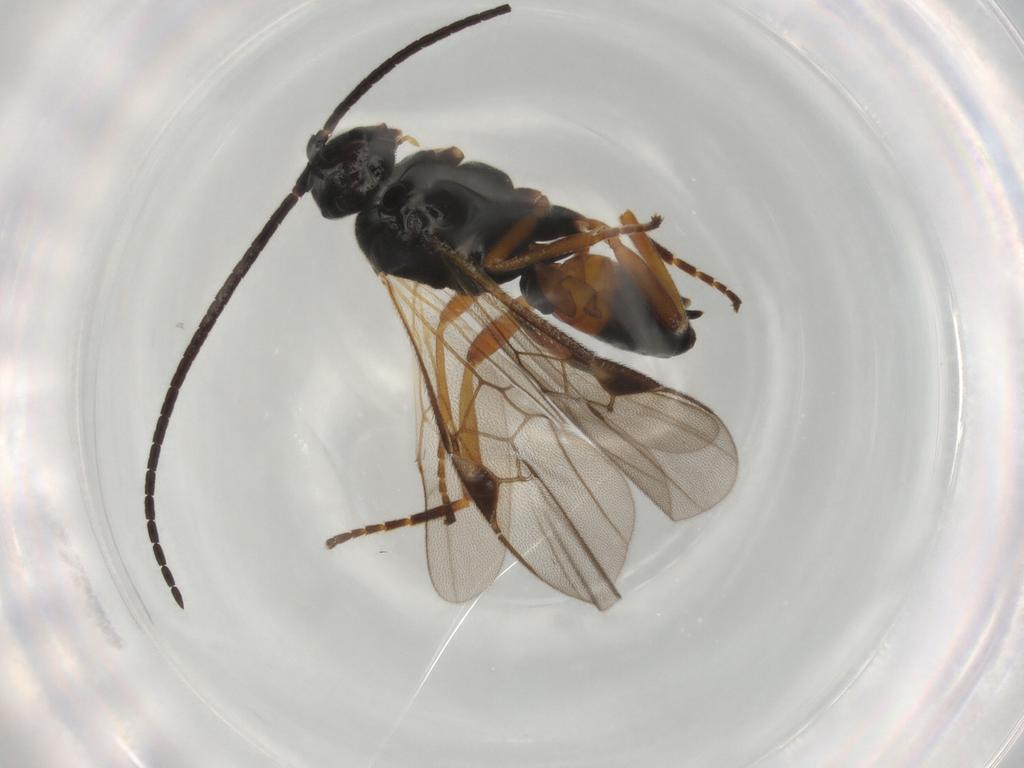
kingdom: Animalia
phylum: Arthropoda
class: Insecta
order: Hymenoptera
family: Braconidae
